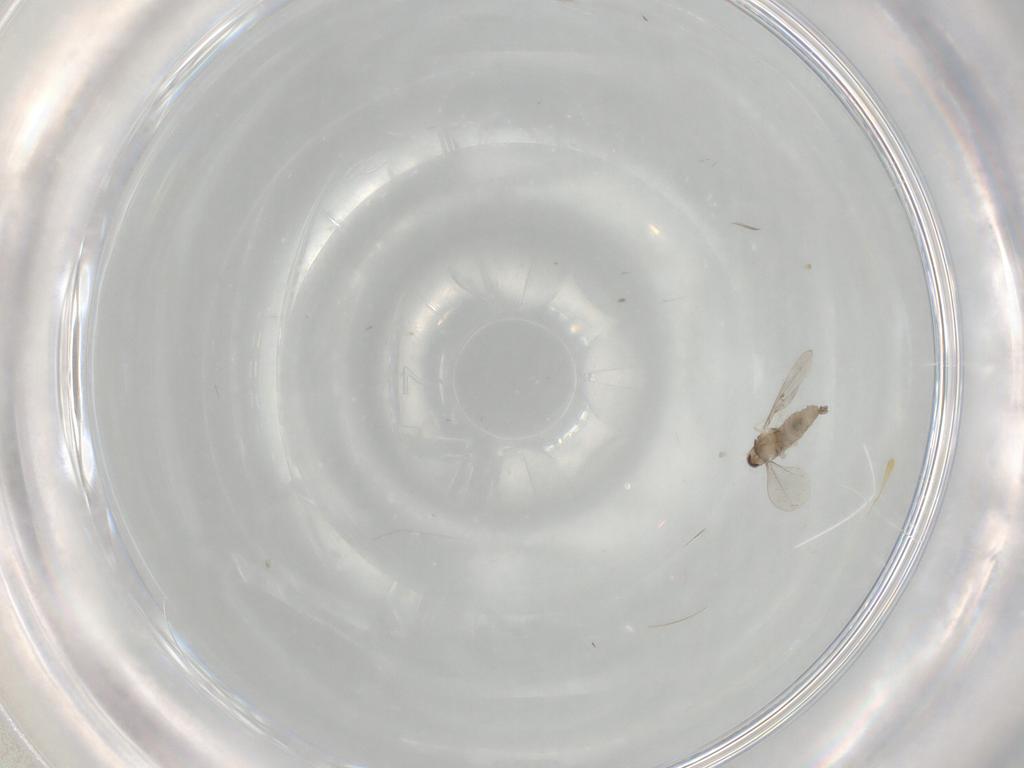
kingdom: Animalia
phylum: Arthropoda
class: Insecta
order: Diptera
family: Cecidomyiidae
